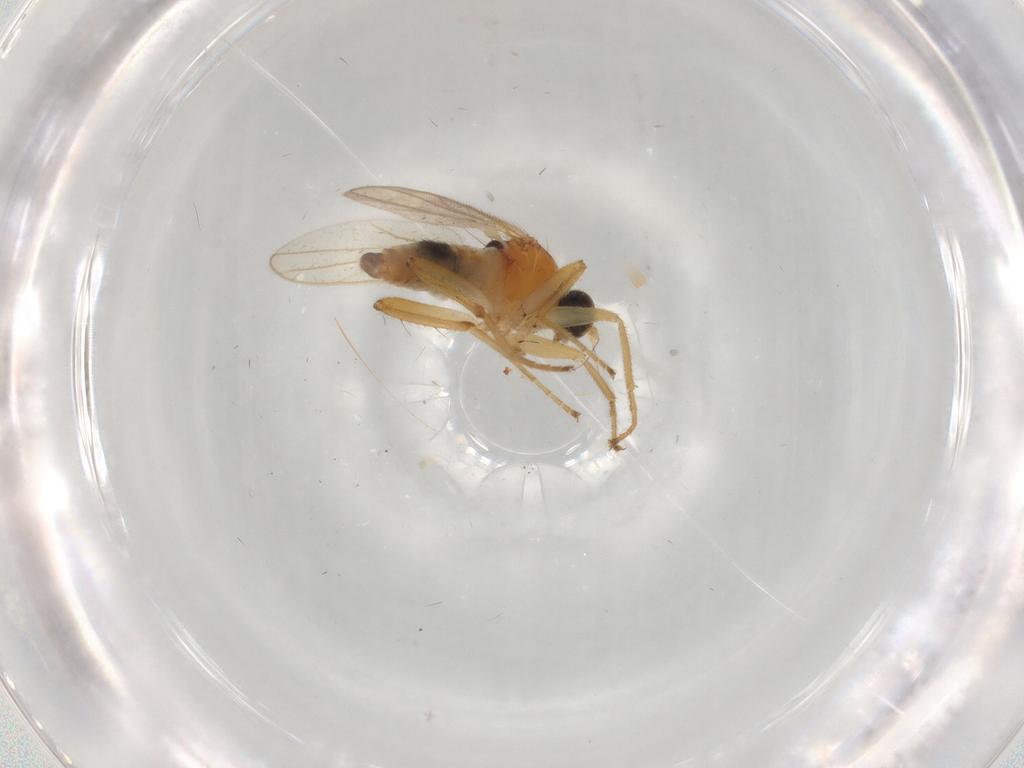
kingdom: Animalia
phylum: Arthropoda
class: Insecta
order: Diptera
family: Hybotidae
